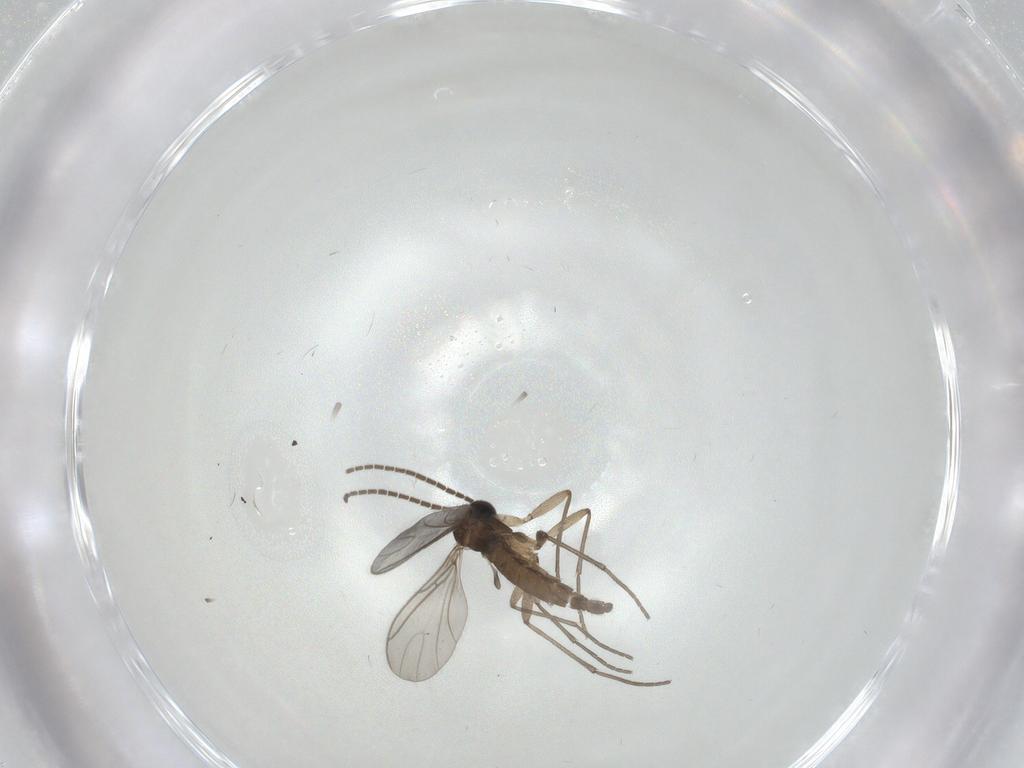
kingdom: Animalia
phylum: Arthropoda
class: Insecta
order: Diptera
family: Sciaridae
